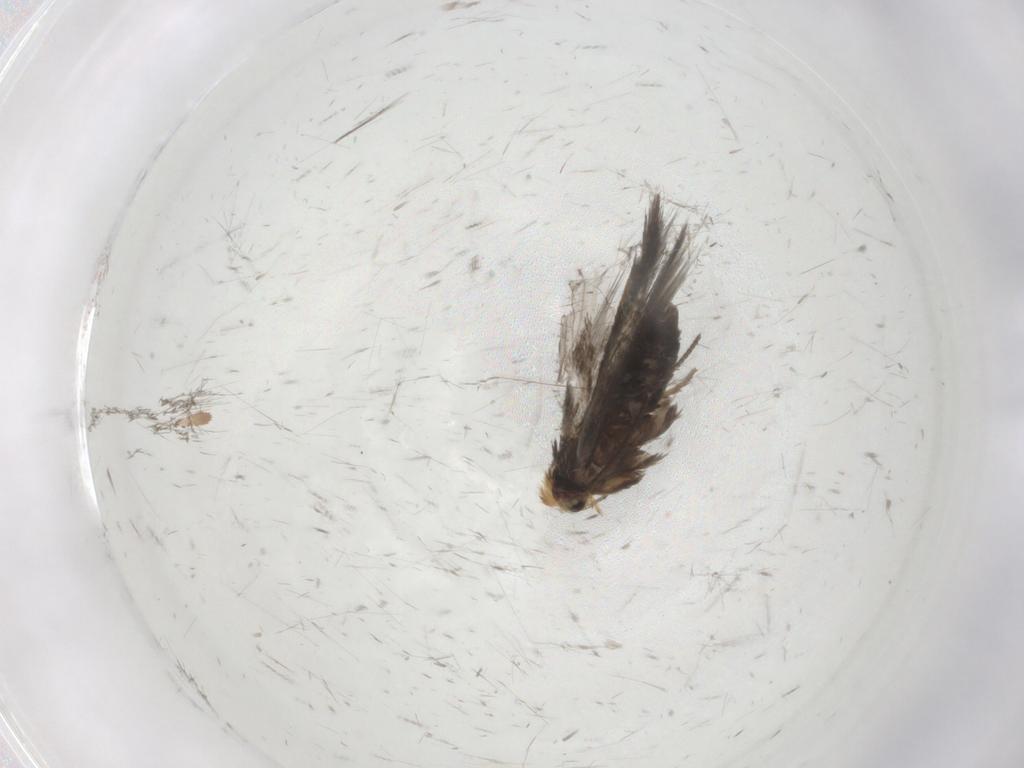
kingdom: Animalia
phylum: Arthropoda
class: Insecta
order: Lepidoptera
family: Nepticulidae
